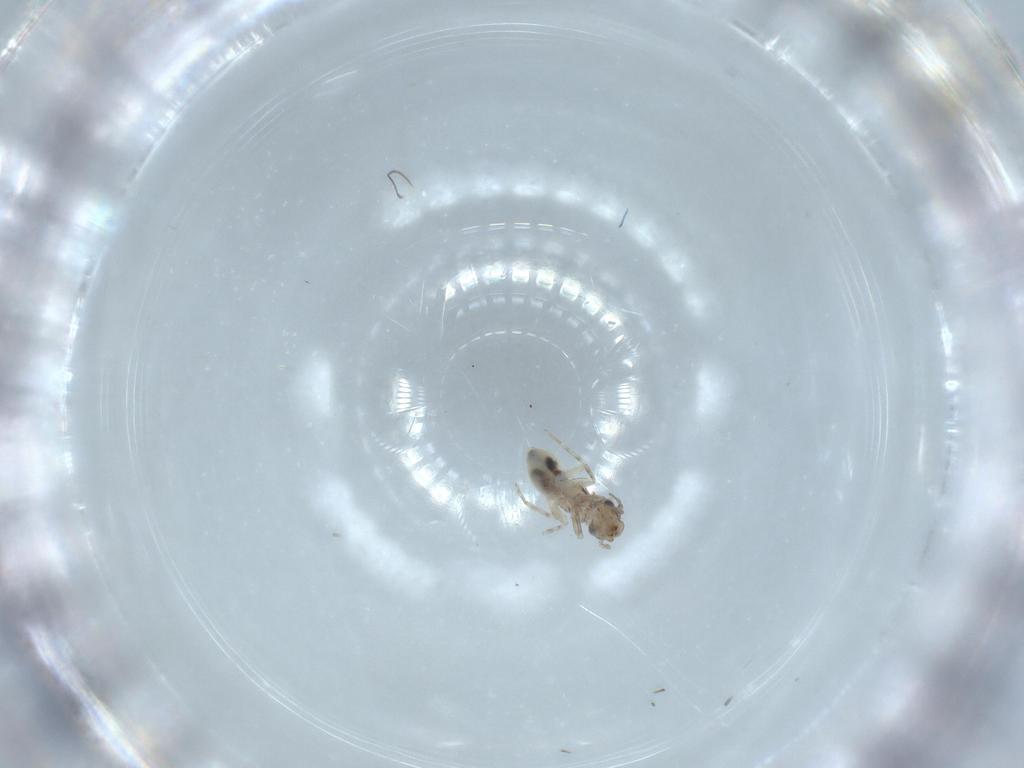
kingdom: Animalia
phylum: Arthropoda
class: Insecta
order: Psocodea
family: Lepidopsocidae
